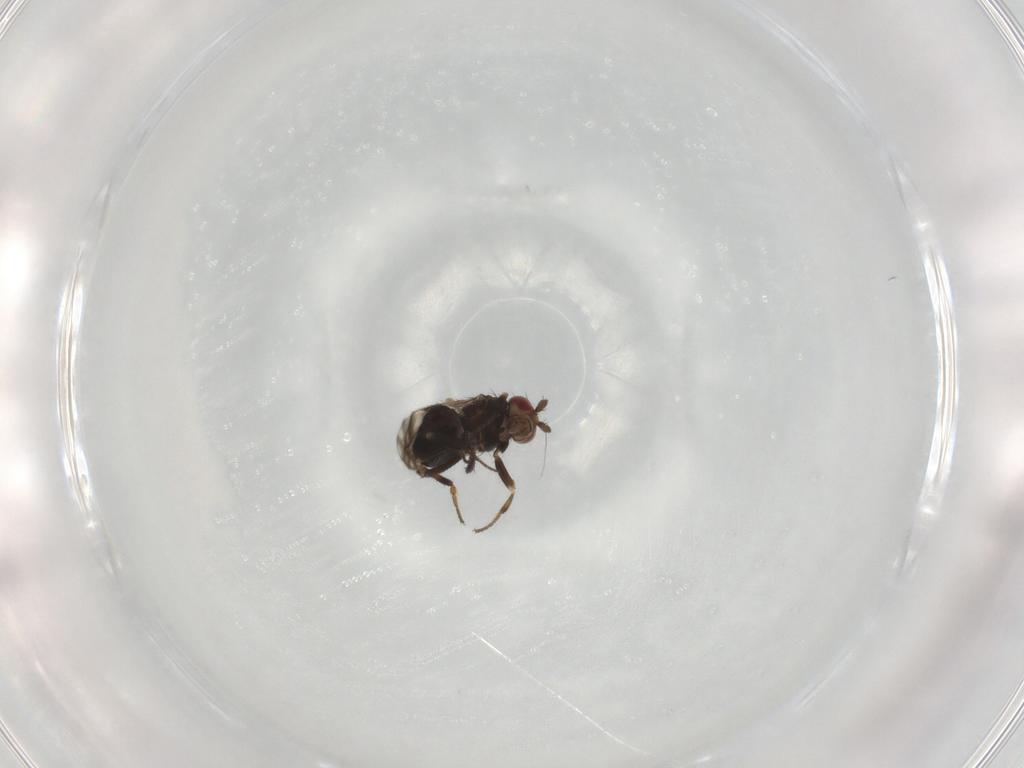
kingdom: Animalia
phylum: Arthropoda
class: Insecta
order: Diptera
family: Sphaeroceridae
